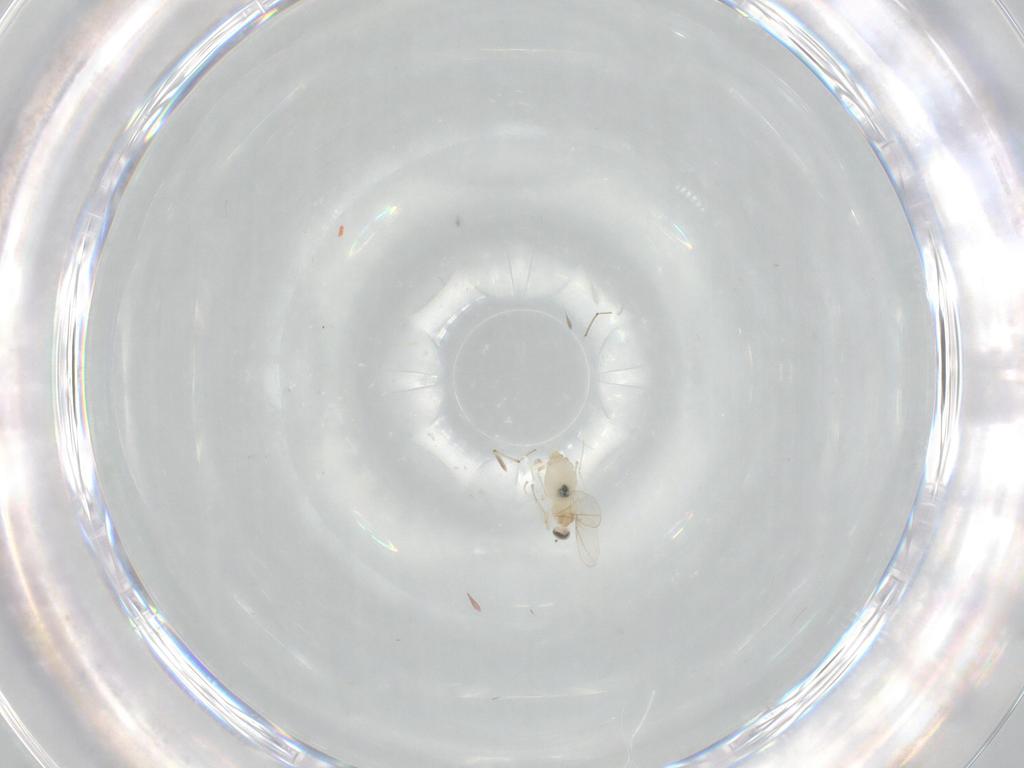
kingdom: Animalia
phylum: Arthropoda
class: Insecta
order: Diptera
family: Cecidomyiidae
